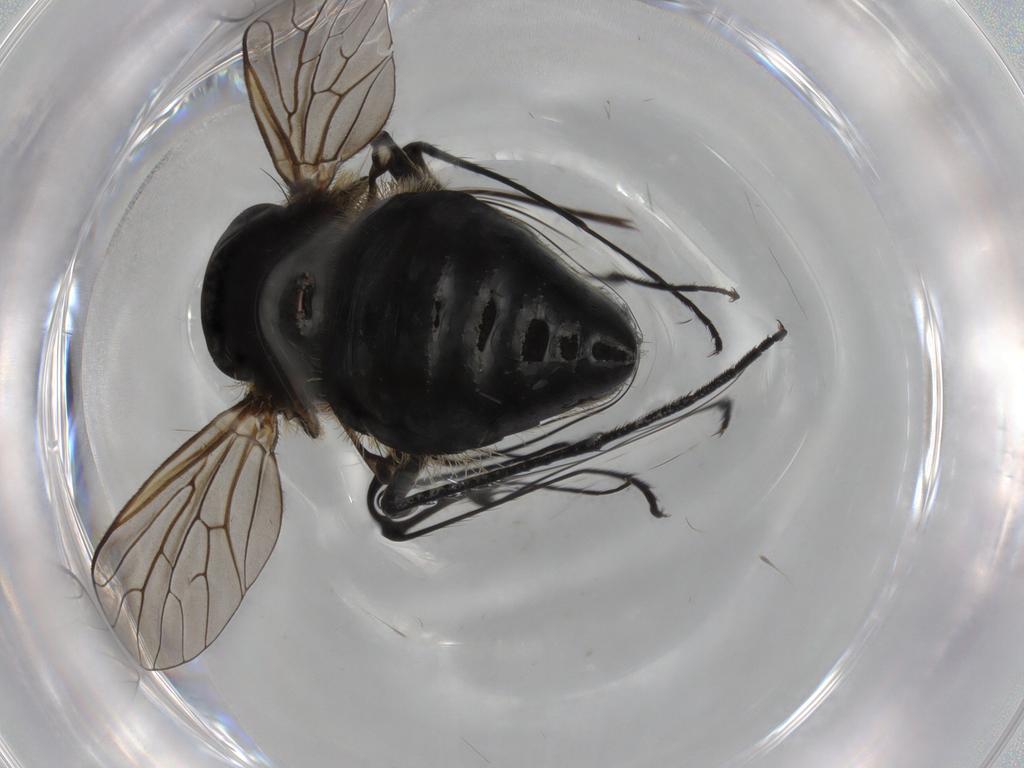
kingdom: Animalia
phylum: Arthropoda
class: Insecta
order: Diptera
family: Bombyliidae
